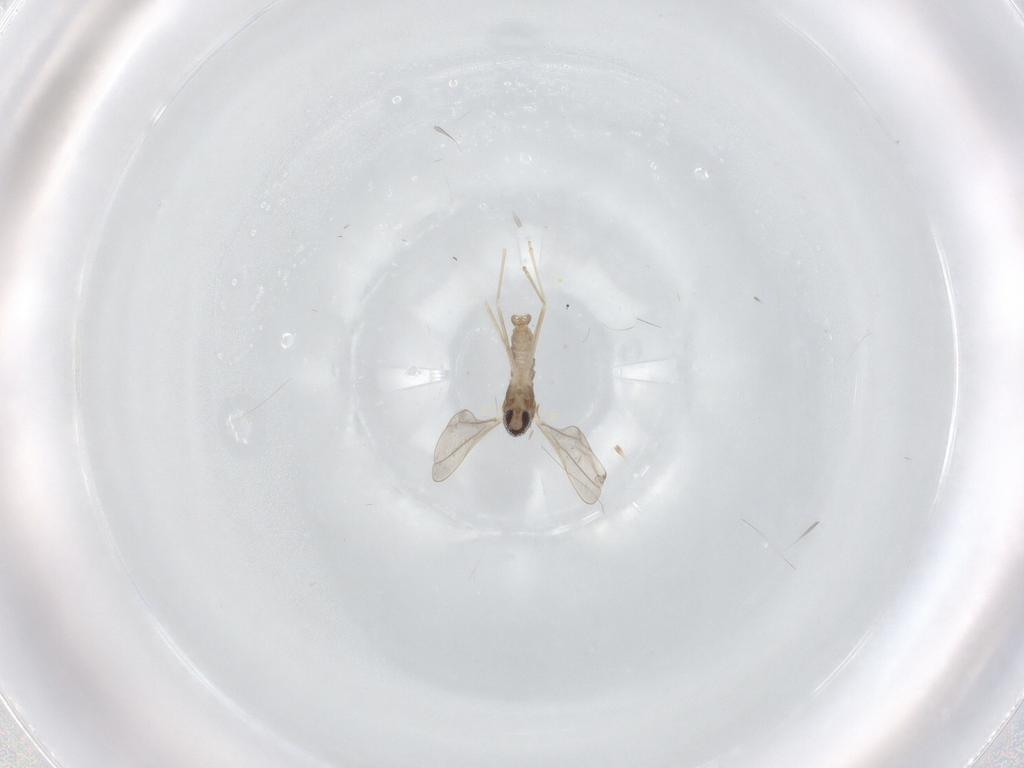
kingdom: Animalia
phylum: Arthropoda
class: Insecta
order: Diptera
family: Cecidomyiidae
